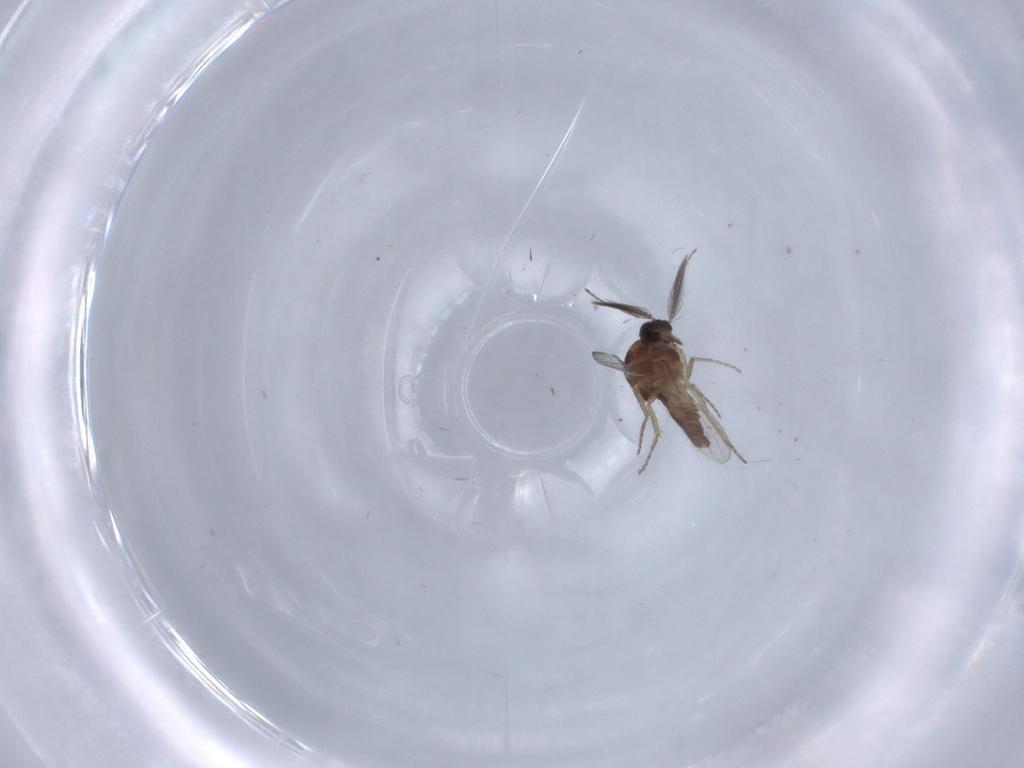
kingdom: Animalia
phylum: Arthropoda
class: Insecta
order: Diptera
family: Ceratopogonidae
